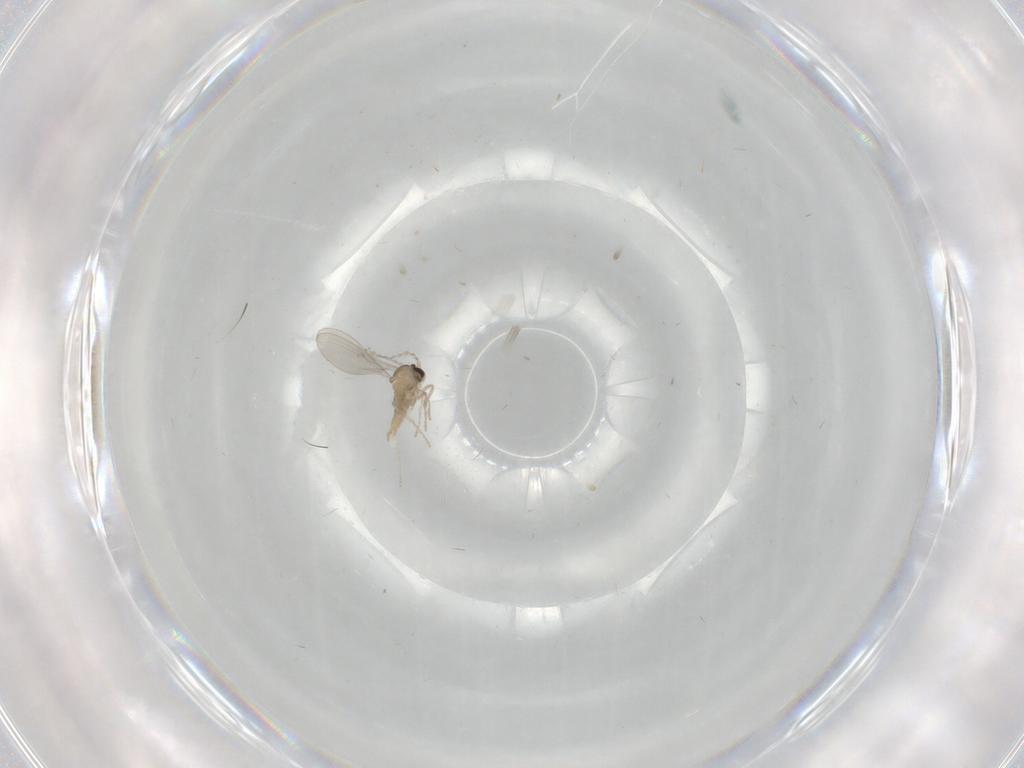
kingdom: Animalia
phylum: Arthropoda
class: Insecta
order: Diptera
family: Cecidomyiidae
